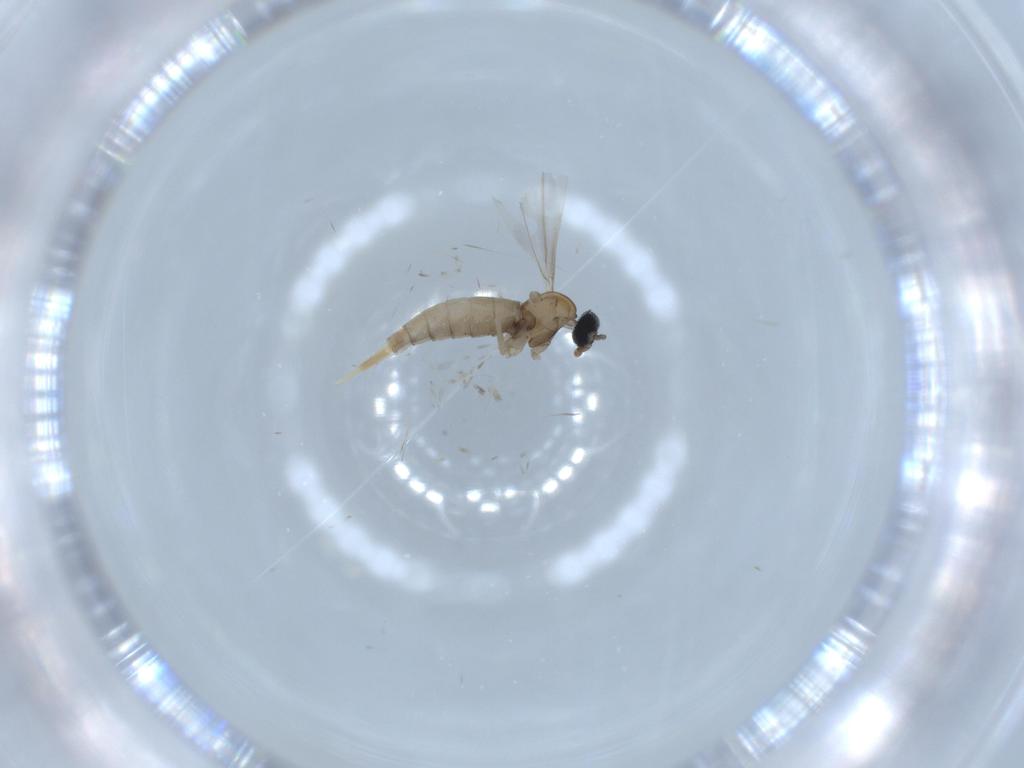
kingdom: Animalia
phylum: Arthropoda
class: Insecta
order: Diptera
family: Cecidomyiidae
